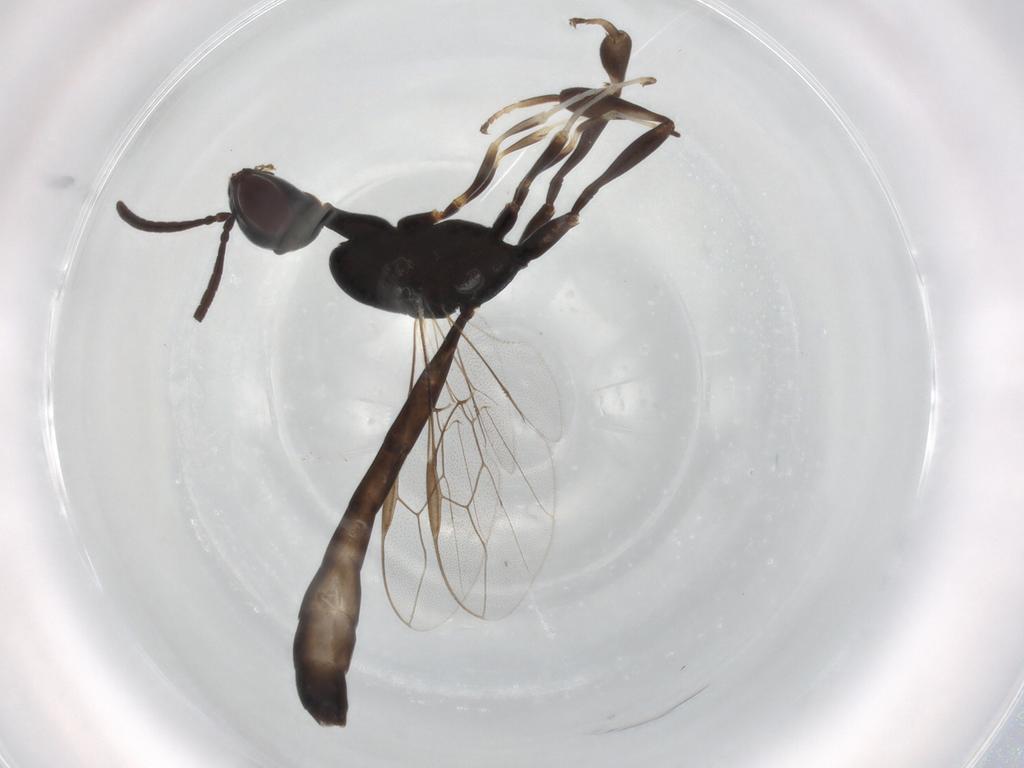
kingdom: Animalia
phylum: Arthropoda
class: Insecta
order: Hymenoptera
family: Gasteruptiidae
